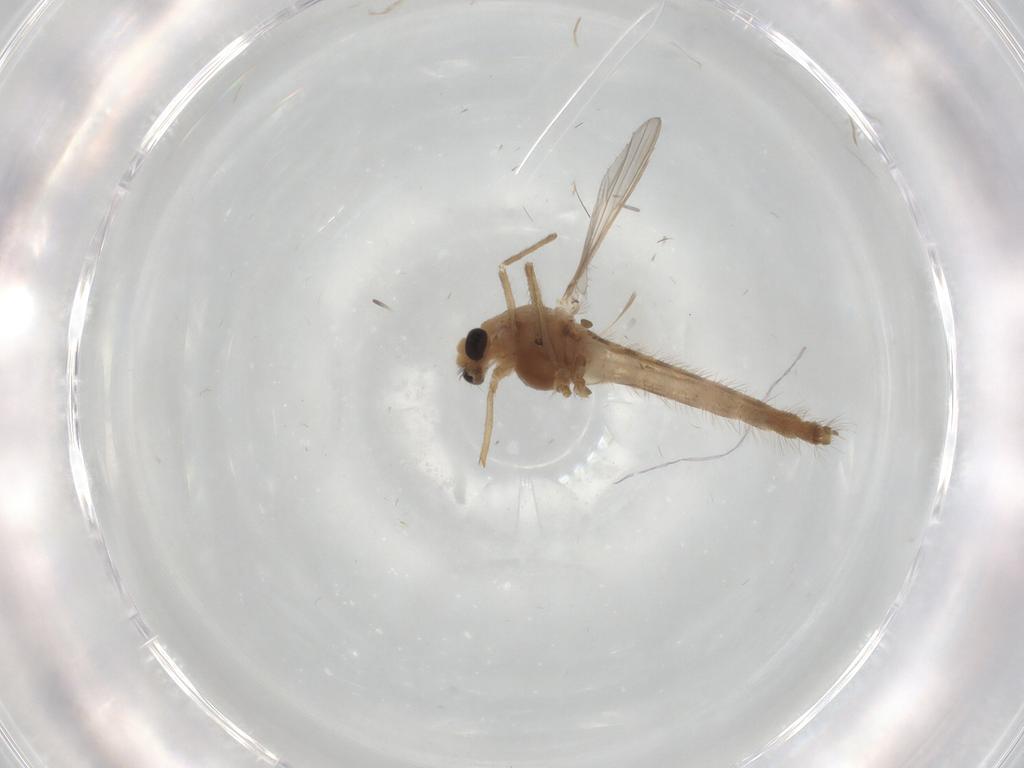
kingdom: Animalia
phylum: Arthropoda
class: Insecta
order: Diptera
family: Chironomidae
